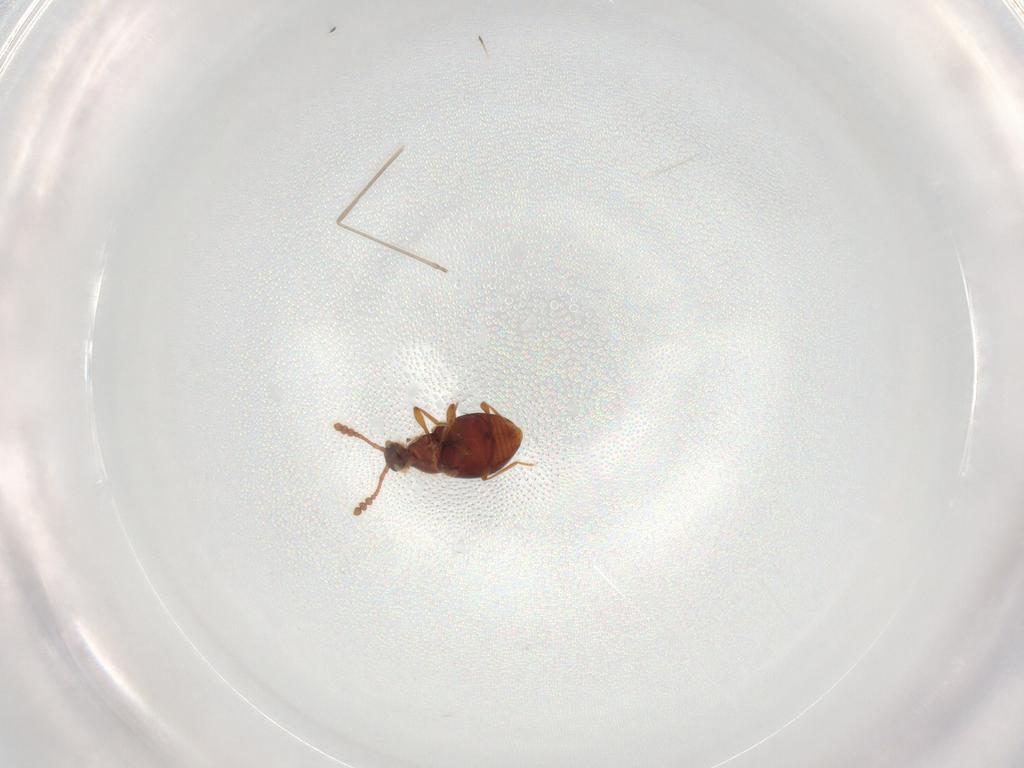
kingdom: Animalia
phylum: Arthropoda
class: Insecta
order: Coleoptera
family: Staphylinidae
